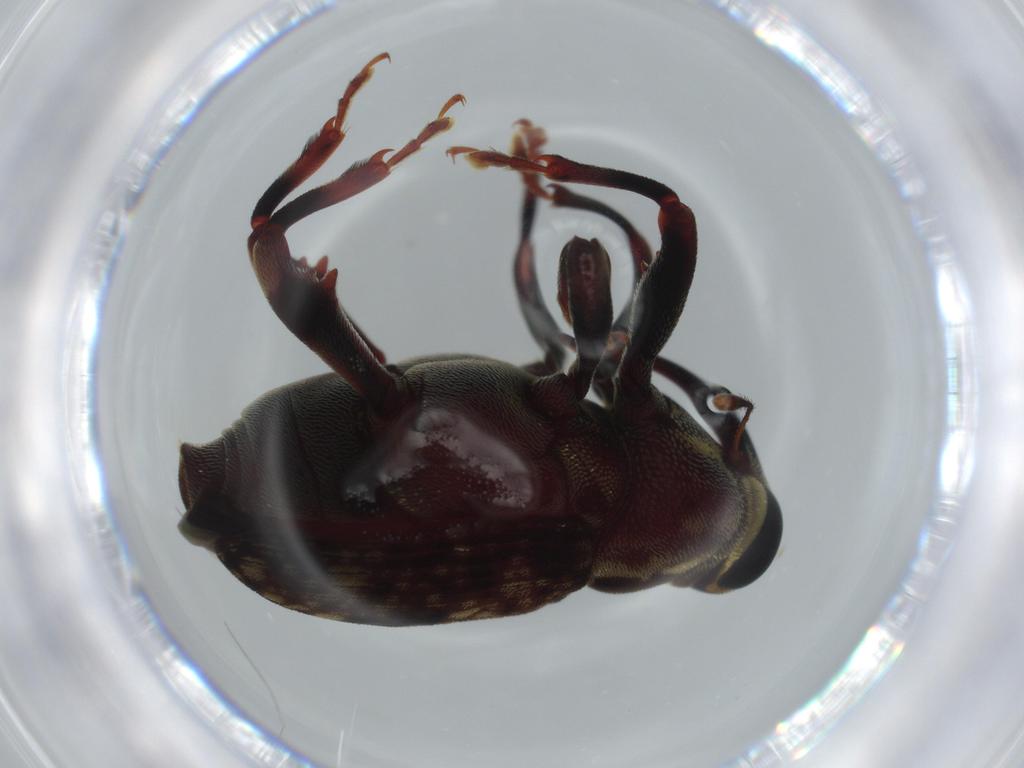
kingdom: Animalia
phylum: Arthropoda
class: Insecta
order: Coleoptera
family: Curculionidae
